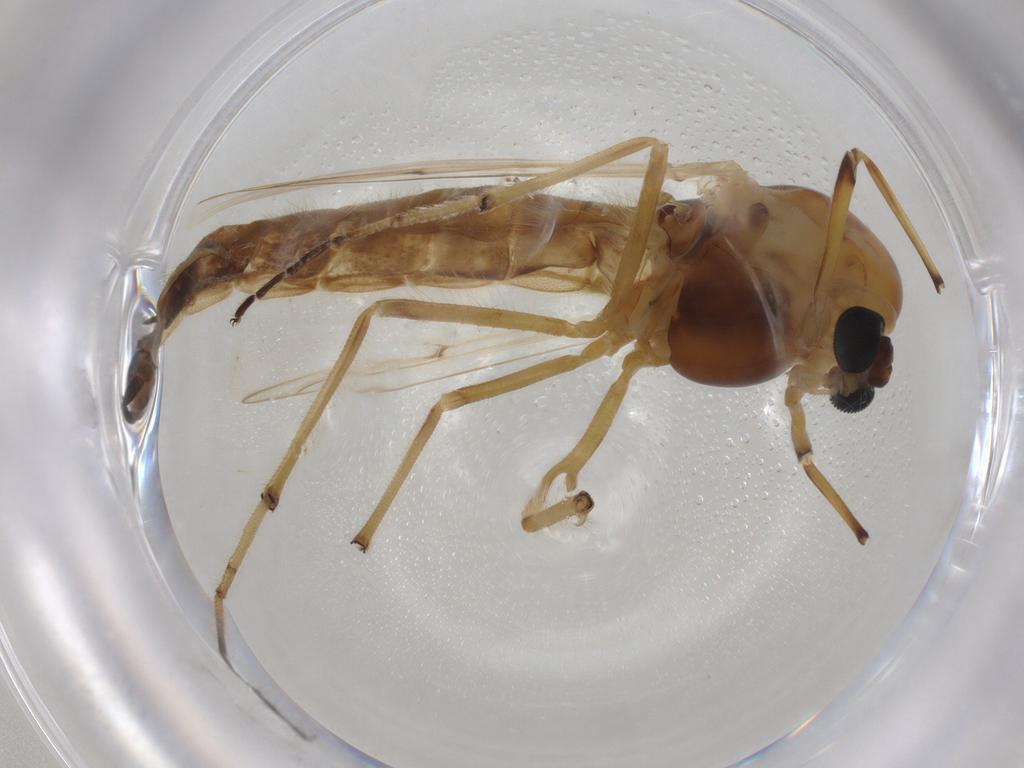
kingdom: Animalia
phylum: Arthropoda
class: Insecta
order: Diptera
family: Chironomidae
